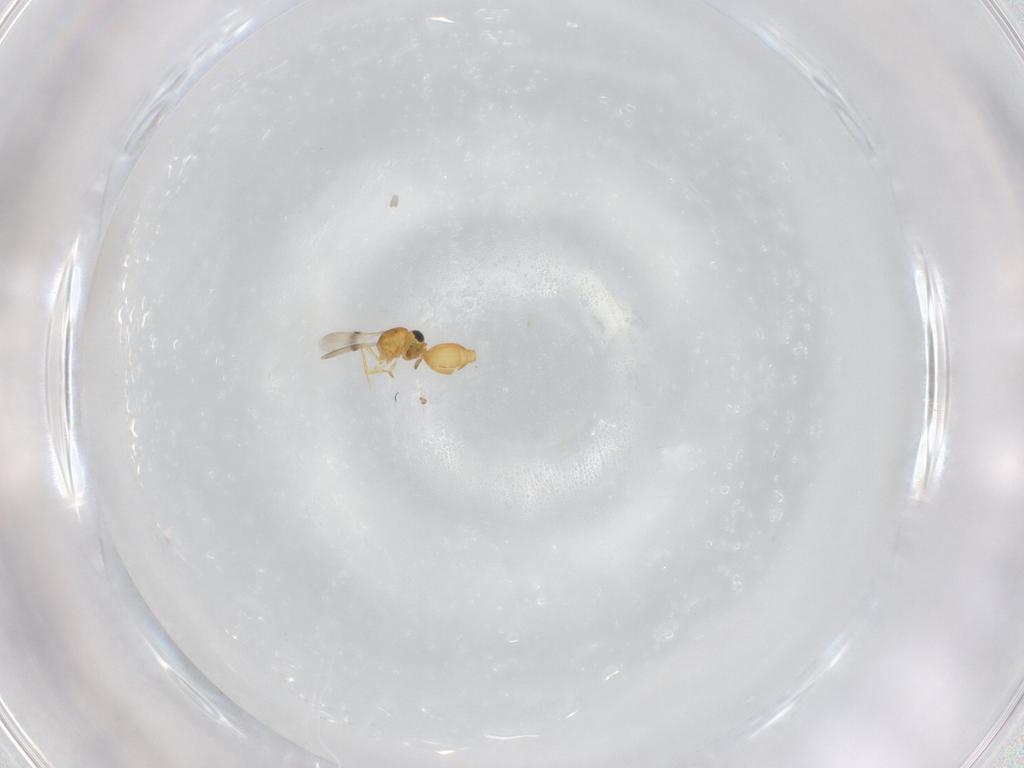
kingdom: Animalia
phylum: Arthropoda
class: Insecta
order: Hymenoptera
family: Scelionidae
